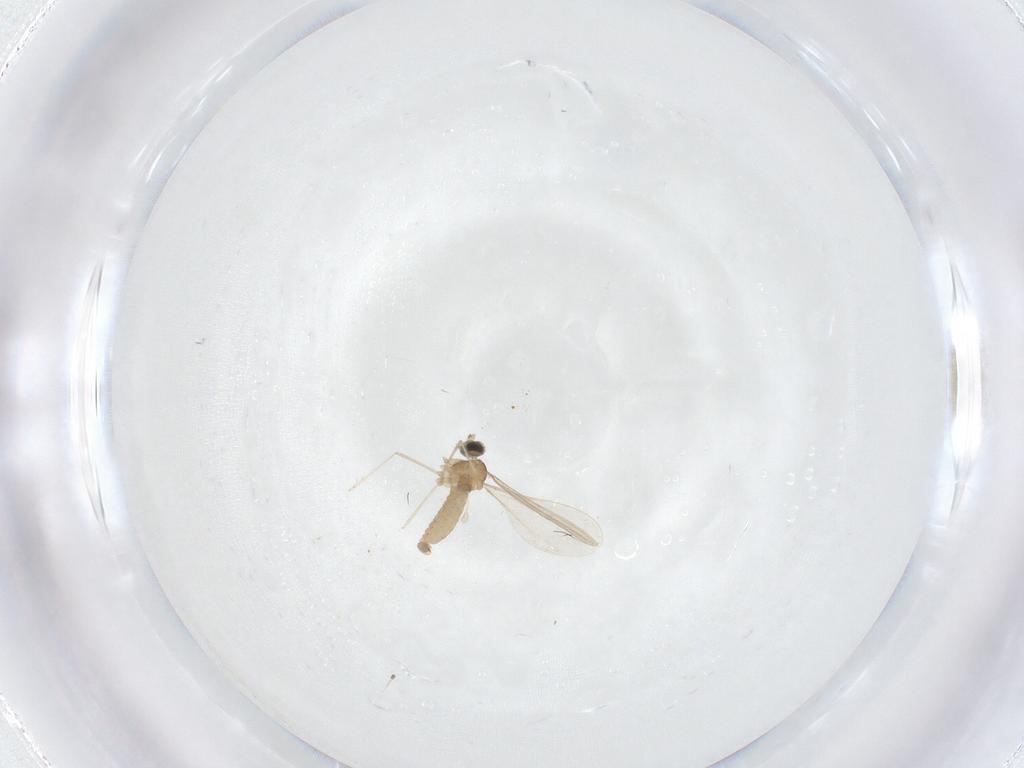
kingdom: Animalia
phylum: Arthropoda
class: Insecta
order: Diptera
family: Cecidomyiidae
